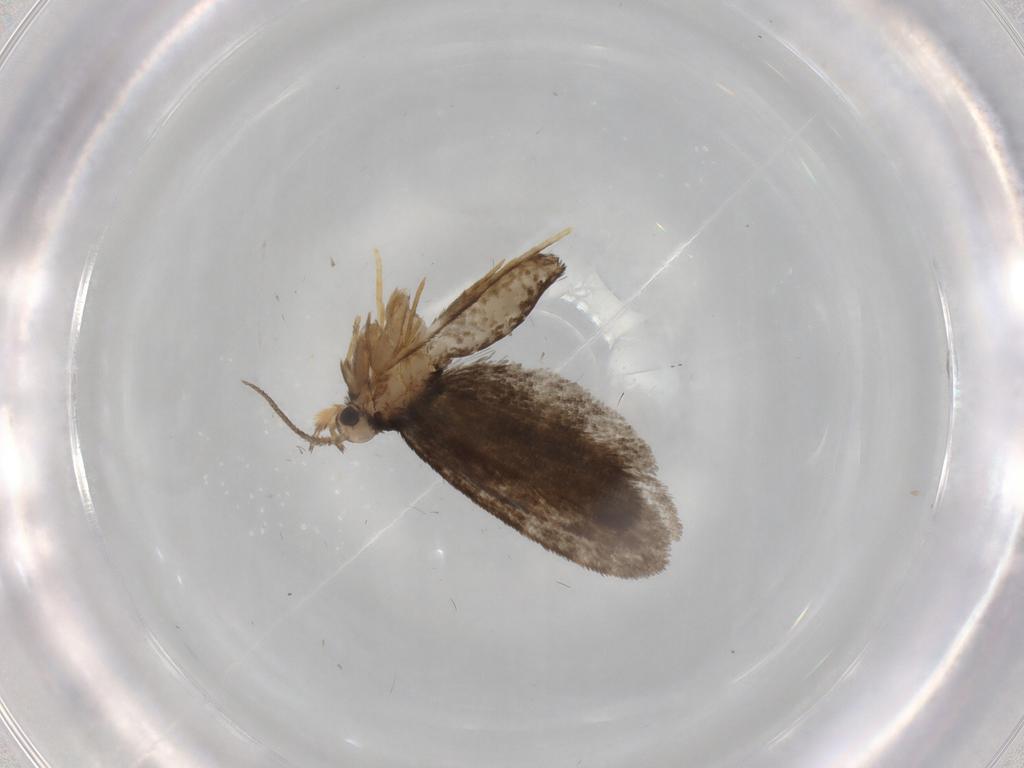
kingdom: Animalia
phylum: Arthropoda
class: Insecta
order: Lepidoptera
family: Psychidae
